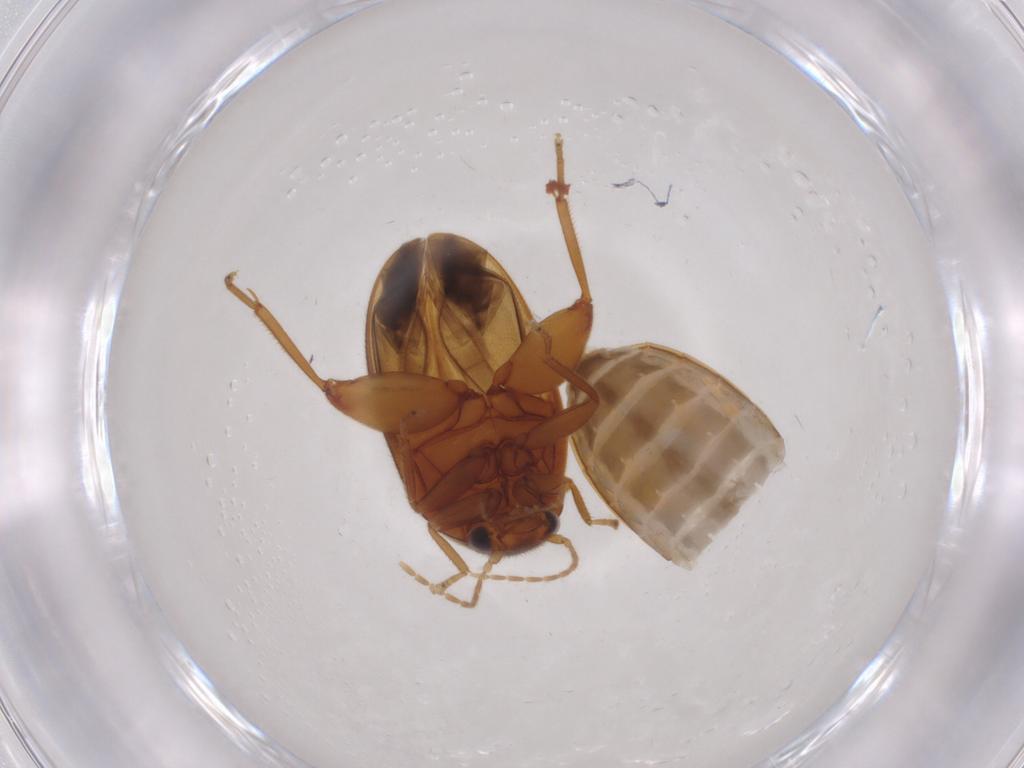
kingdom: Animalia
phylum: Arthropoda
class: Insecta
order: Coleoptera
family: Scirtidae
